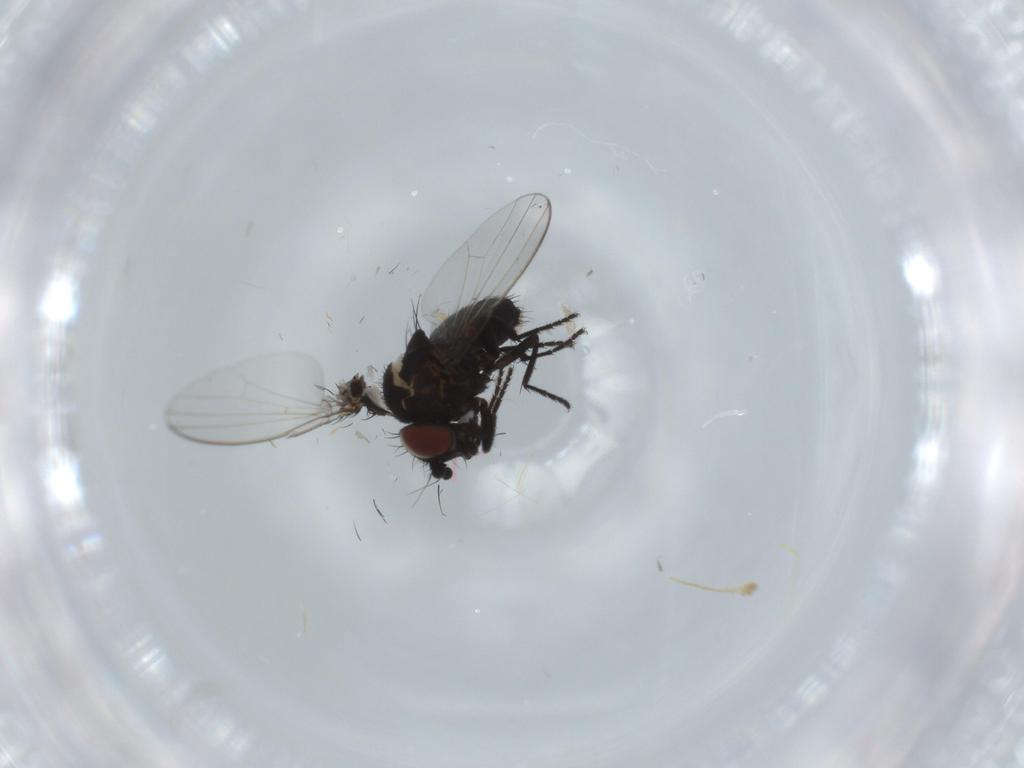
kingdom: Animalia
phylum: Arthropoda
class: Insecta
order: Diptera
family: Milichiidae
